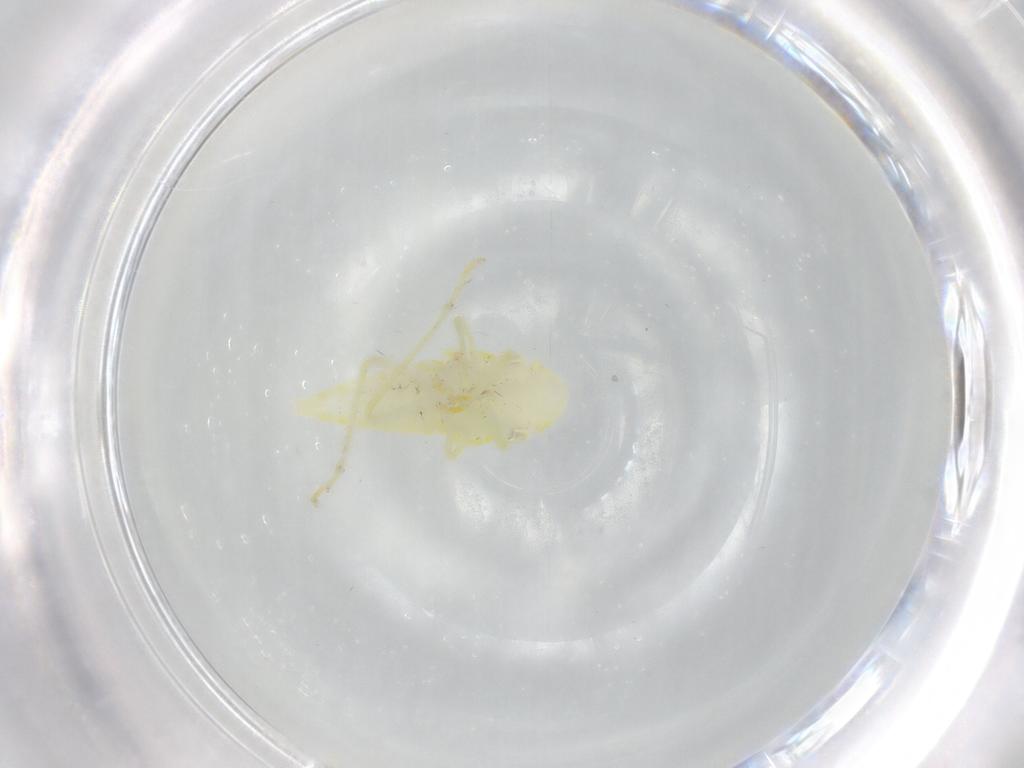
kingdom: Animalia
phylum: Arthropoda
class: Insecta
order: Hemiptera
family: Cicadellidae
